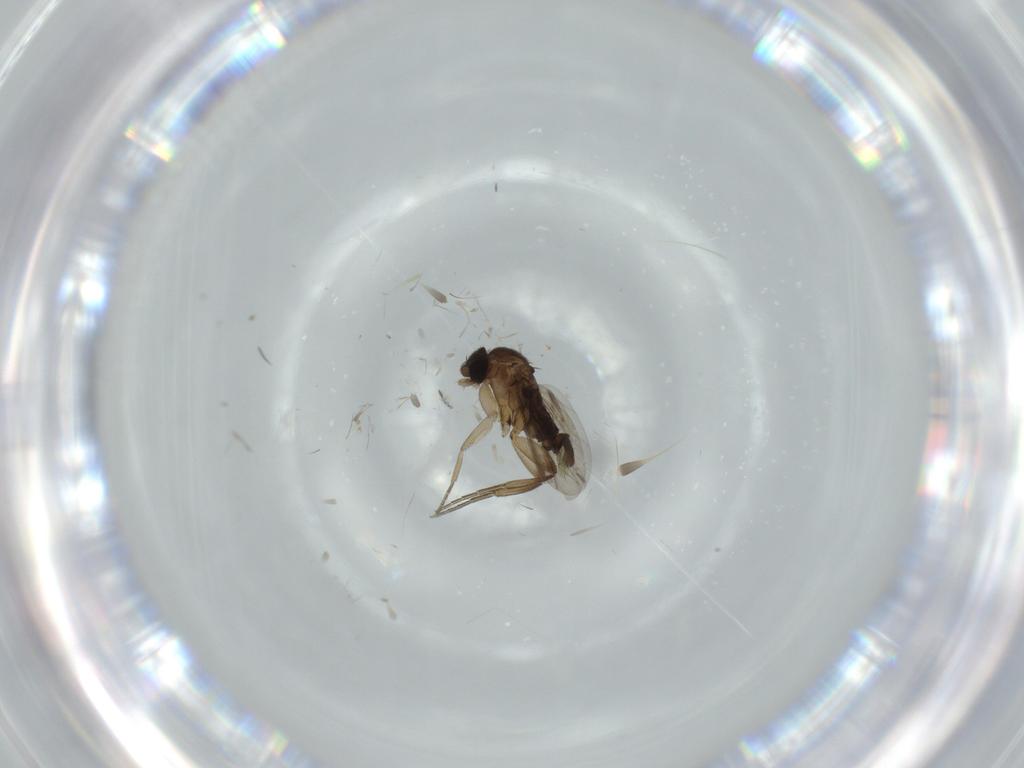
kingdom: Animalia
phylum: Arthropoda
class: Insecta
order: Diptera
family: Phoridae
